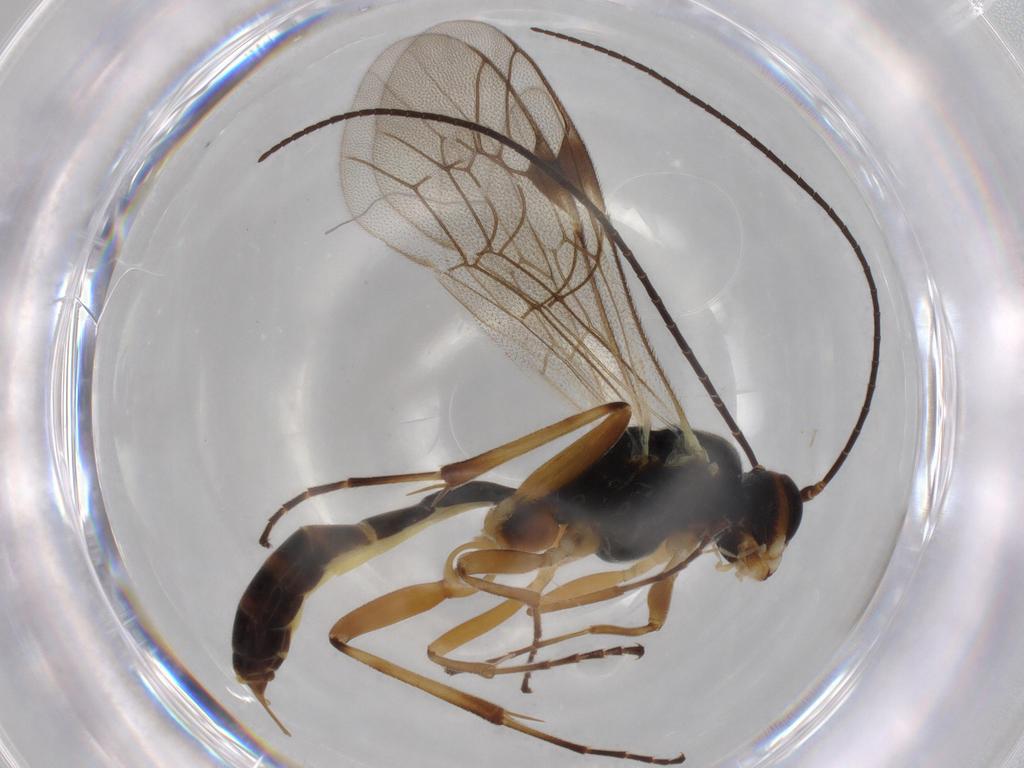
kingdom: Animalia
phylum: Arthropoda
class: Insecta
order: Hymenoptera
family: Ichneumonidae
